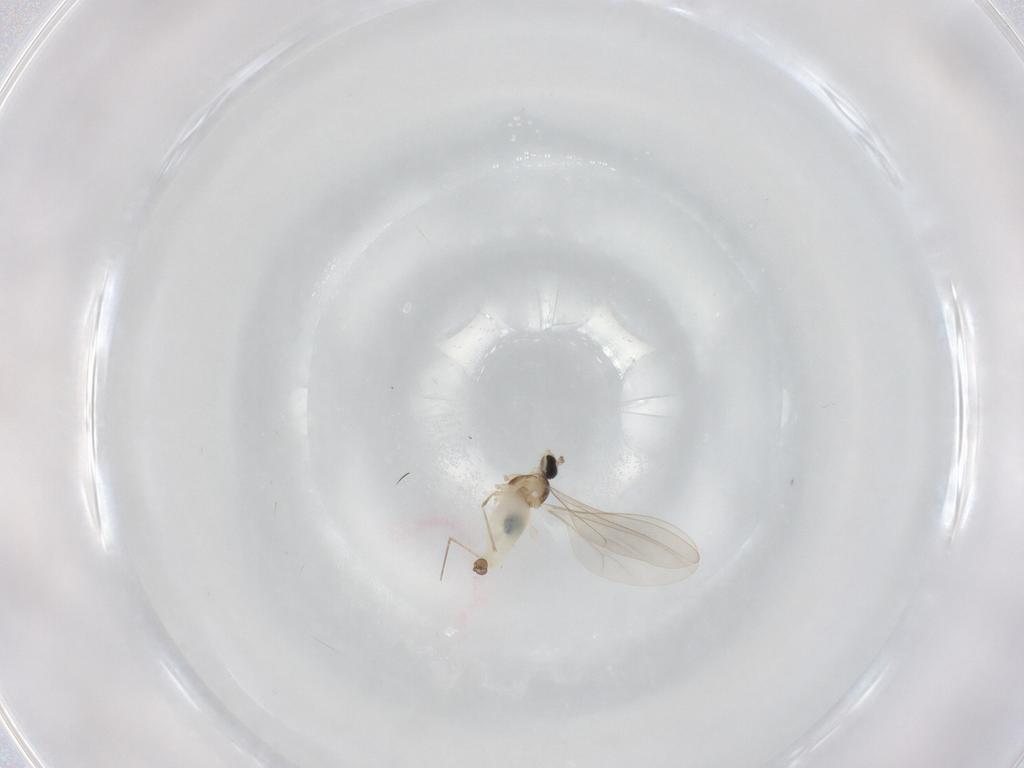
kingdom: Animalia
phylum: Arthropoda
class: Insecta
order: Diptera
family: Cecidomyiidae
